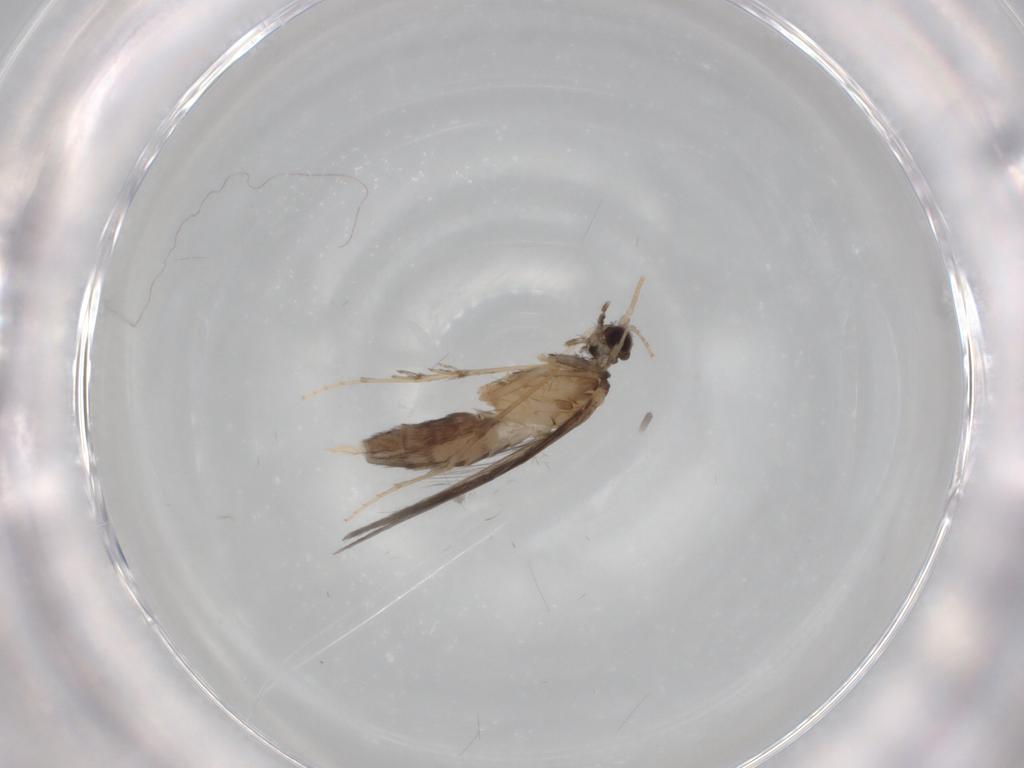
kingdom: Animalia
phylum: Arthropoda
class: Insecta
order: Trichoptera
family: Hydroptilidae
